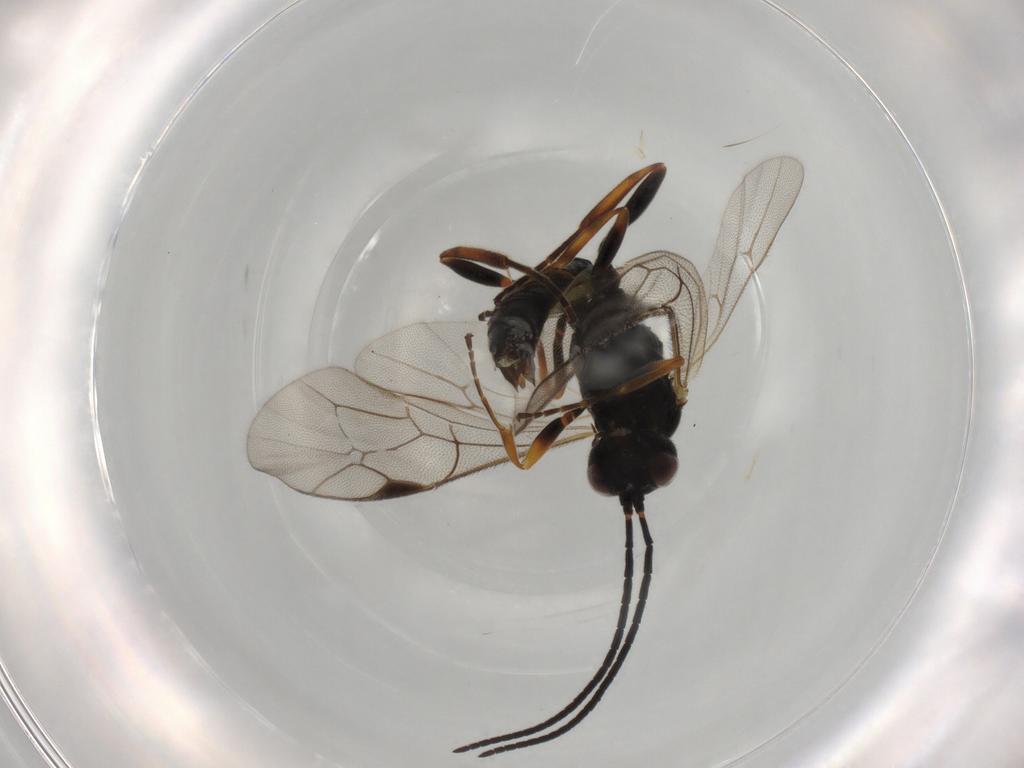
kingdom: Animalia
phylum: Arthropoda
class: Insecta
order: Hymenoptera
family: Ichneumonidae
